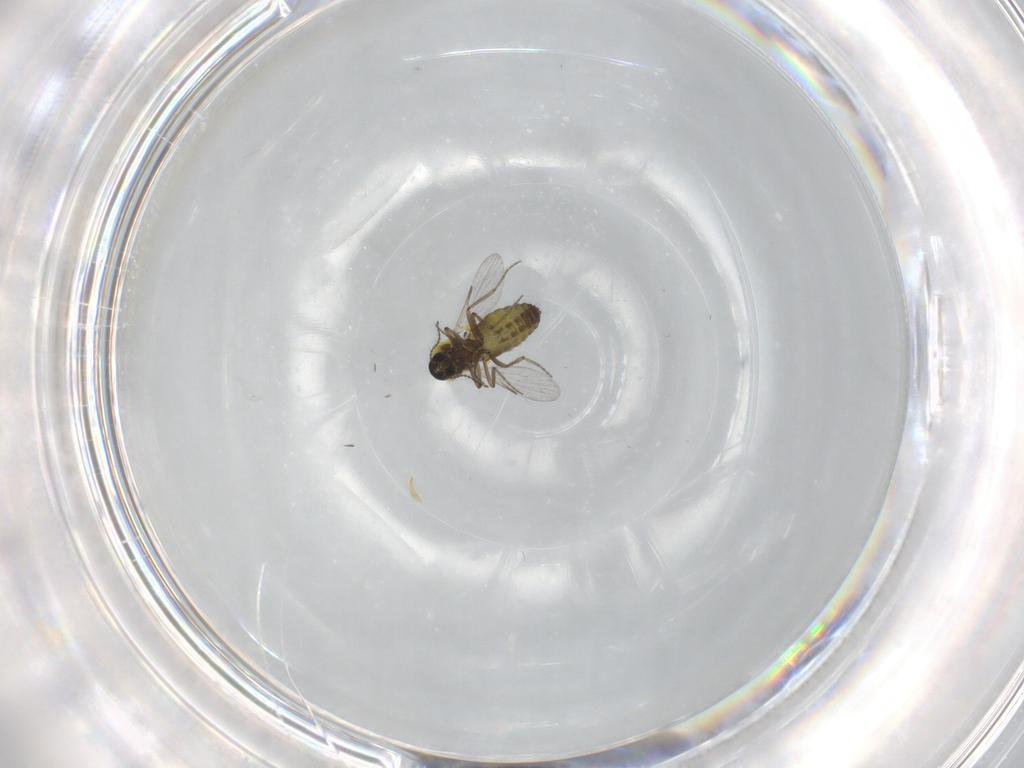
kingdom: Animalia
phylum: Arthropoda
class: Insecta
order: Diptera
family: Ceratopogonidae
